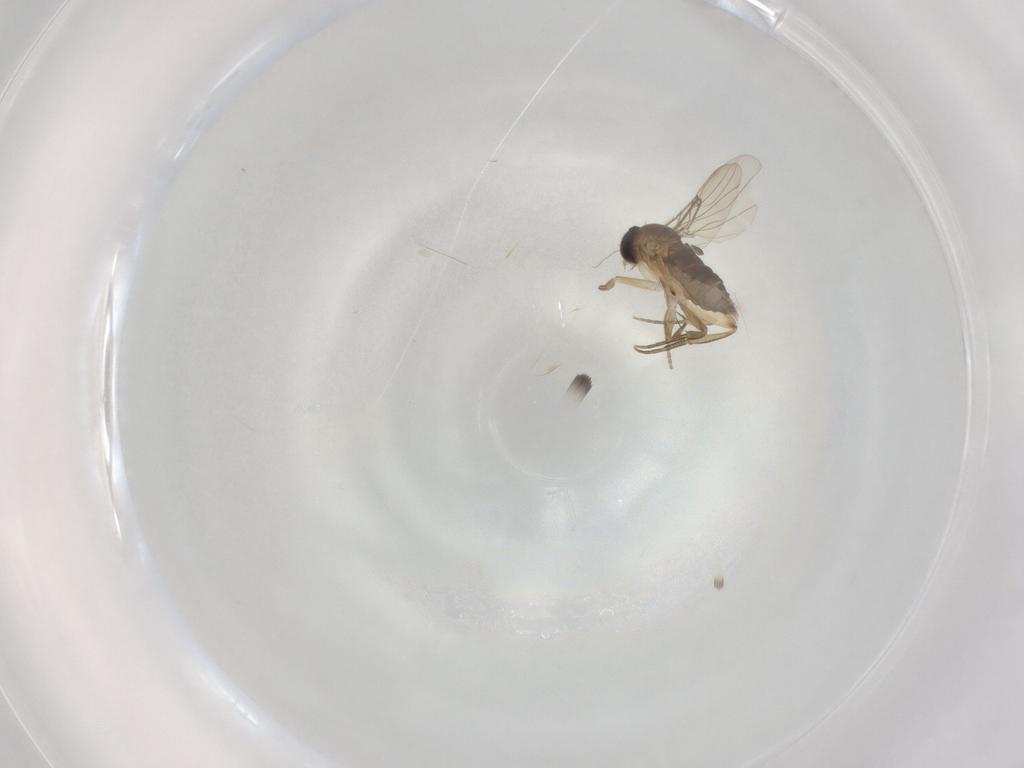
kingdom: Animalia
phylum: Arthropoda
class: Insecta
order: Diptera
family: Phoridae
